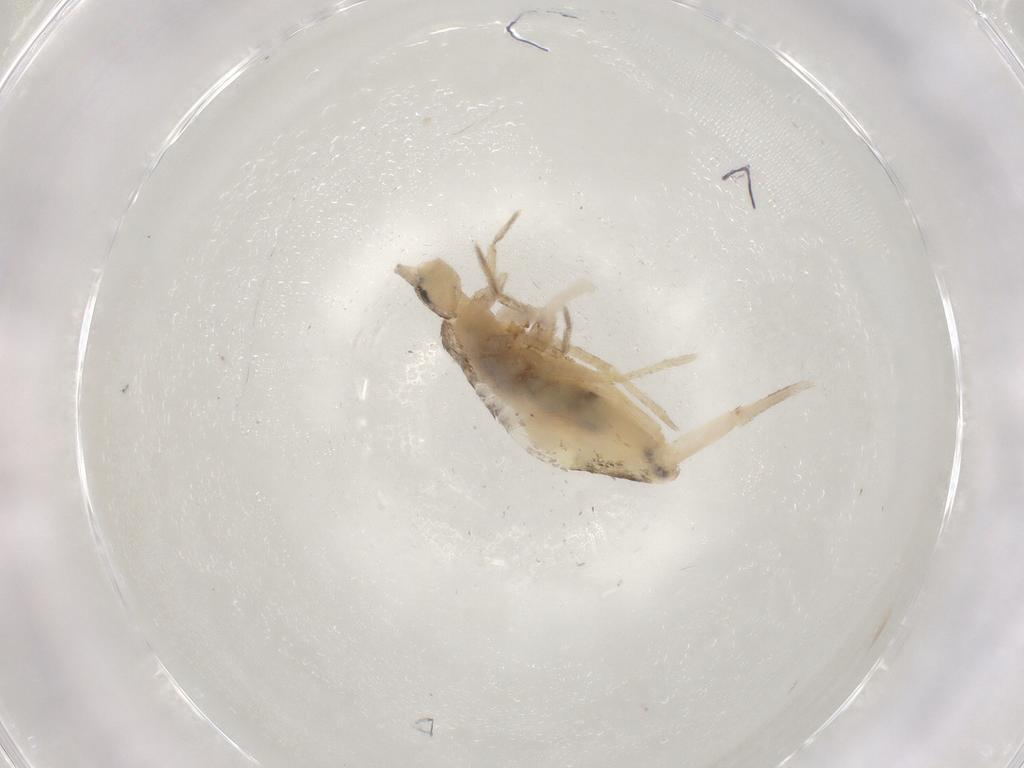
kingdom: Animalia
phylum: Arthropoda
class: Collembola
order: Entomobryomorpha
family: Entomobryidae
